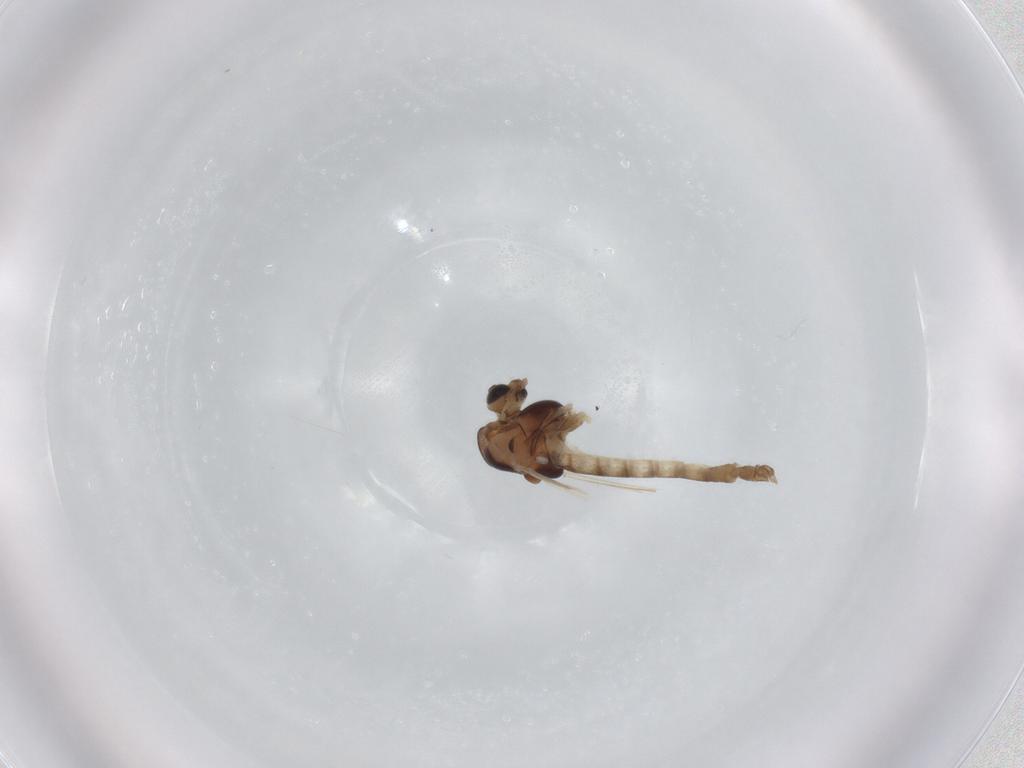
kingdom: Animalia
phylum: Arthropoda
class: Insecta
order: Diptera
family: Chironomidae
